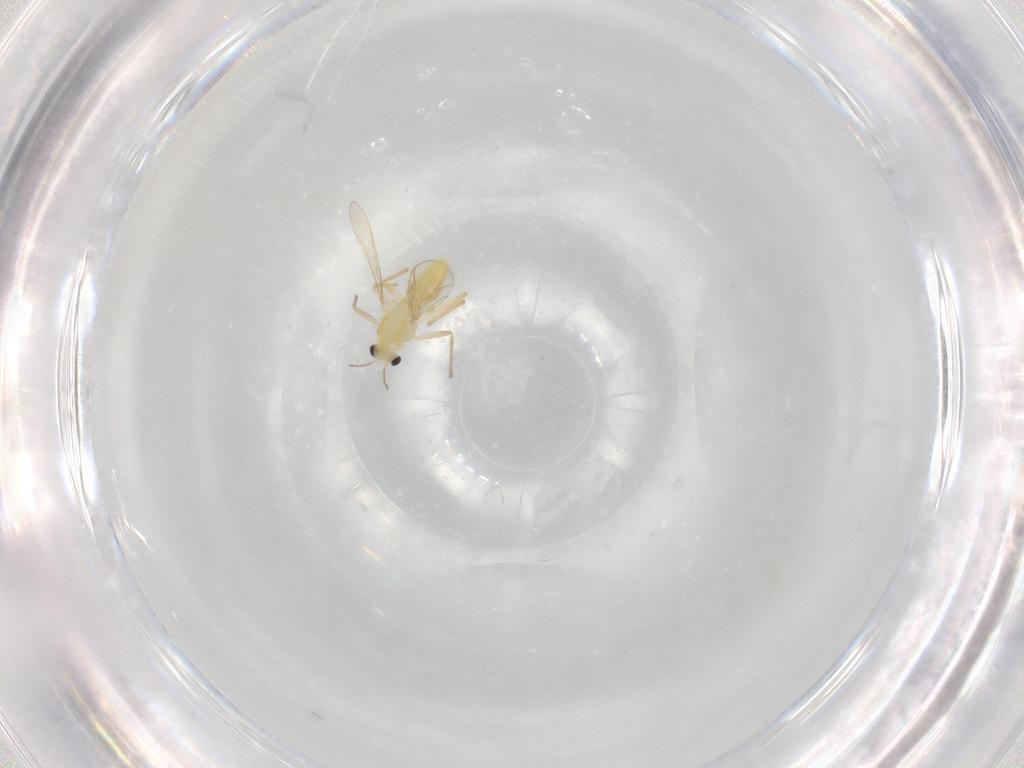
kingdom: Animalia
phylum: Arthropoda
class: Insecta
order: Diptera
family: Chironomidae
